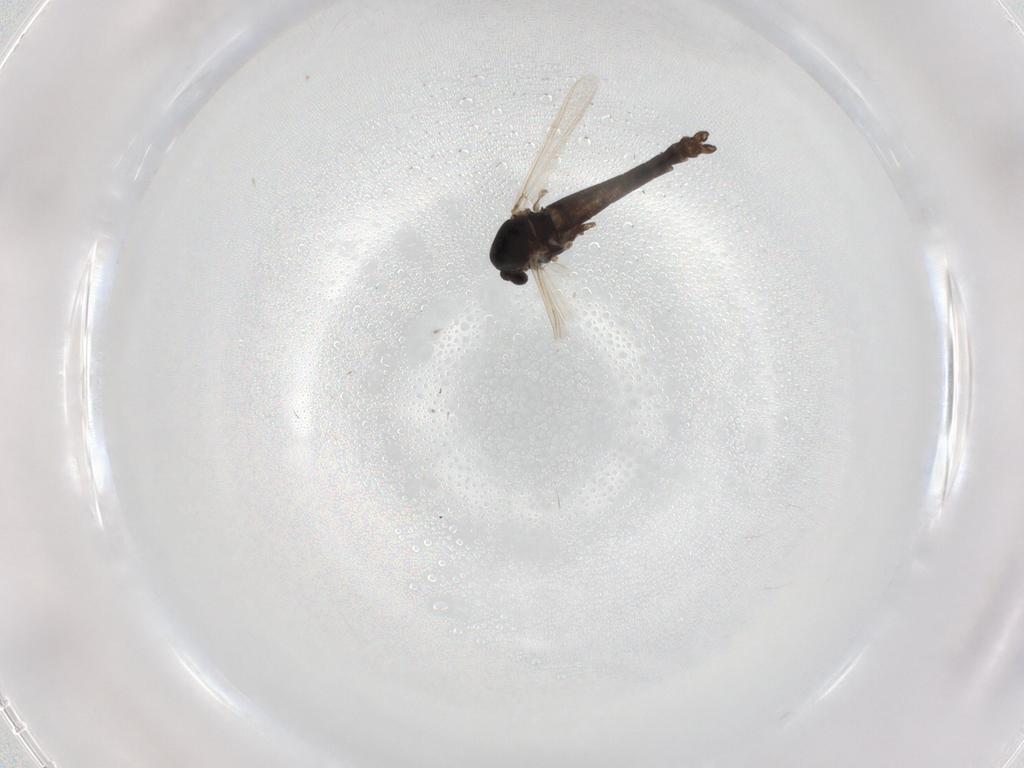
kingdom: Animalia
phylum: Arthropoda
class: Insecta
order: Diptera
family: Chironomidae
